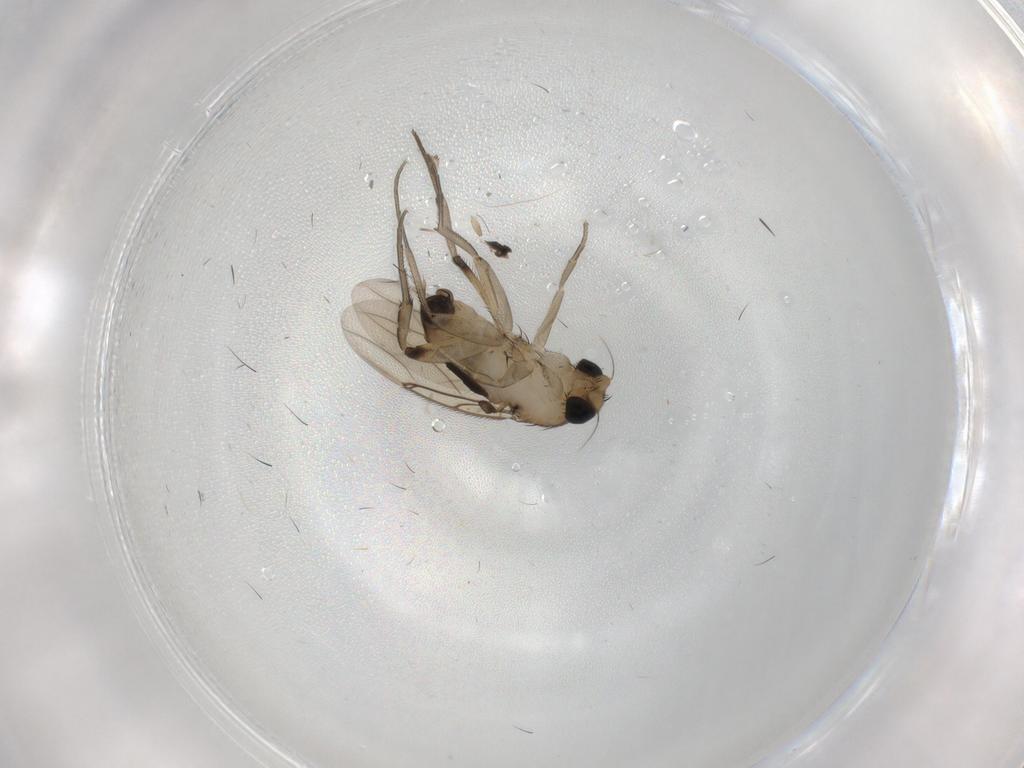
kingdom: Animalia
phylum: Arthropoda
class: Insecta
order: Diptera
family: Phoridae
